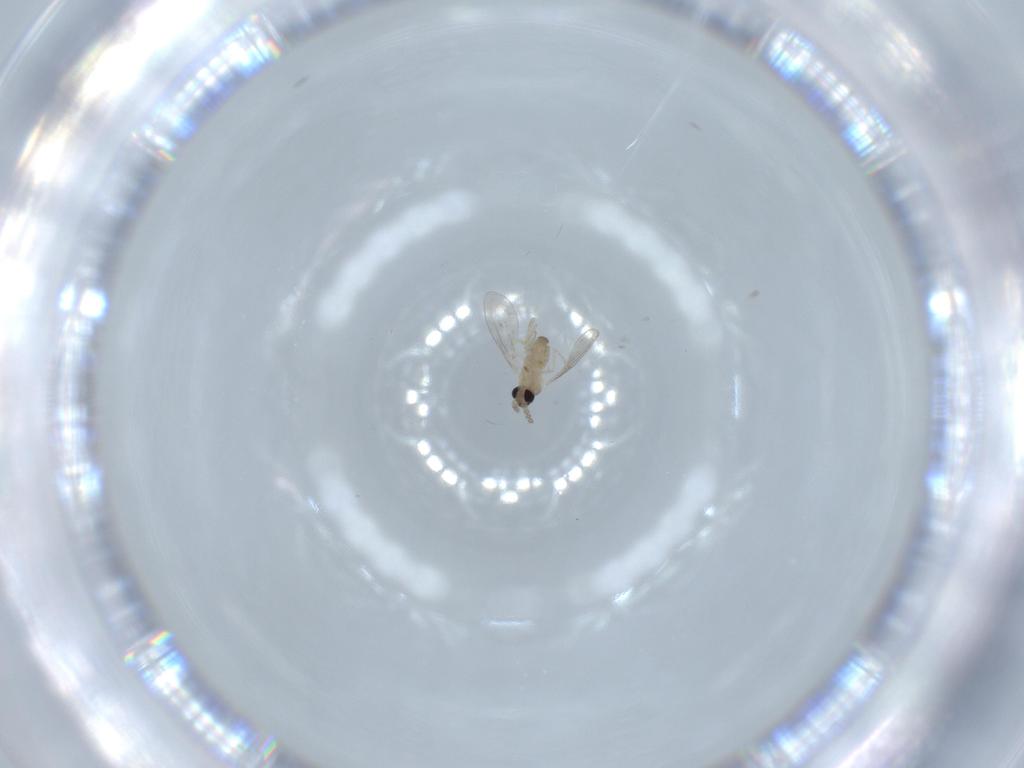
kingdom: Animalia
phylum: Arthropoda
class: Insecta
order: Diptera
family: Cecidomyiidae
